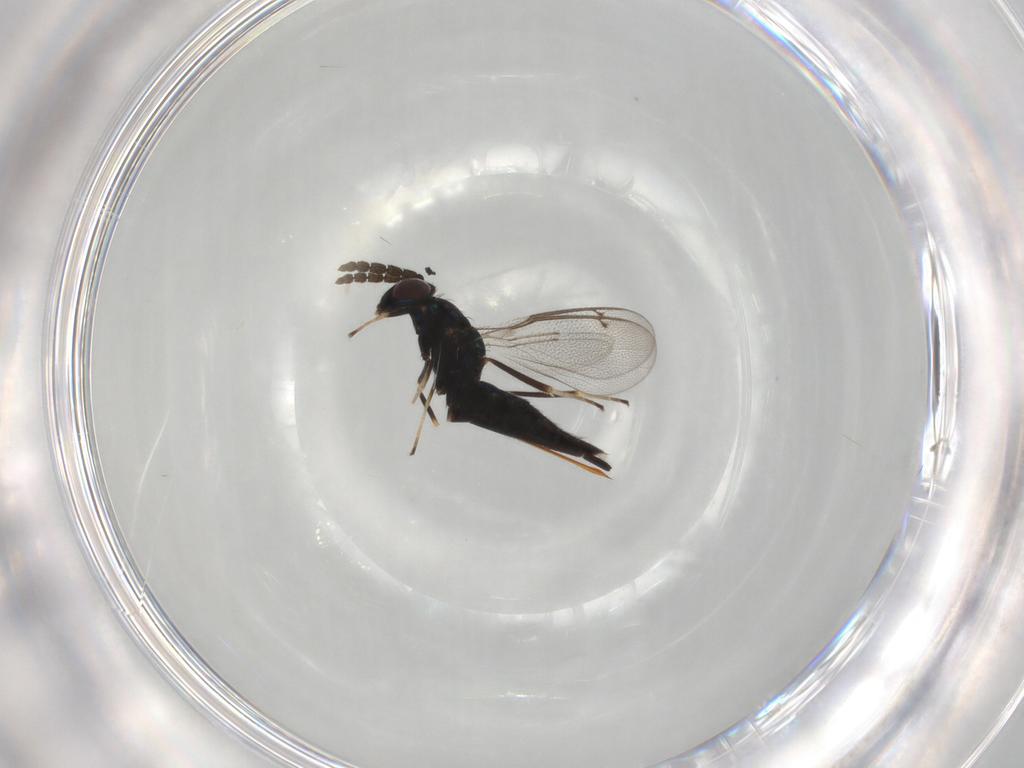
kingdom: Animalia
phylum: Arthropoda
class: Insecta
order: Hymenoptera
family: Eulophidae
